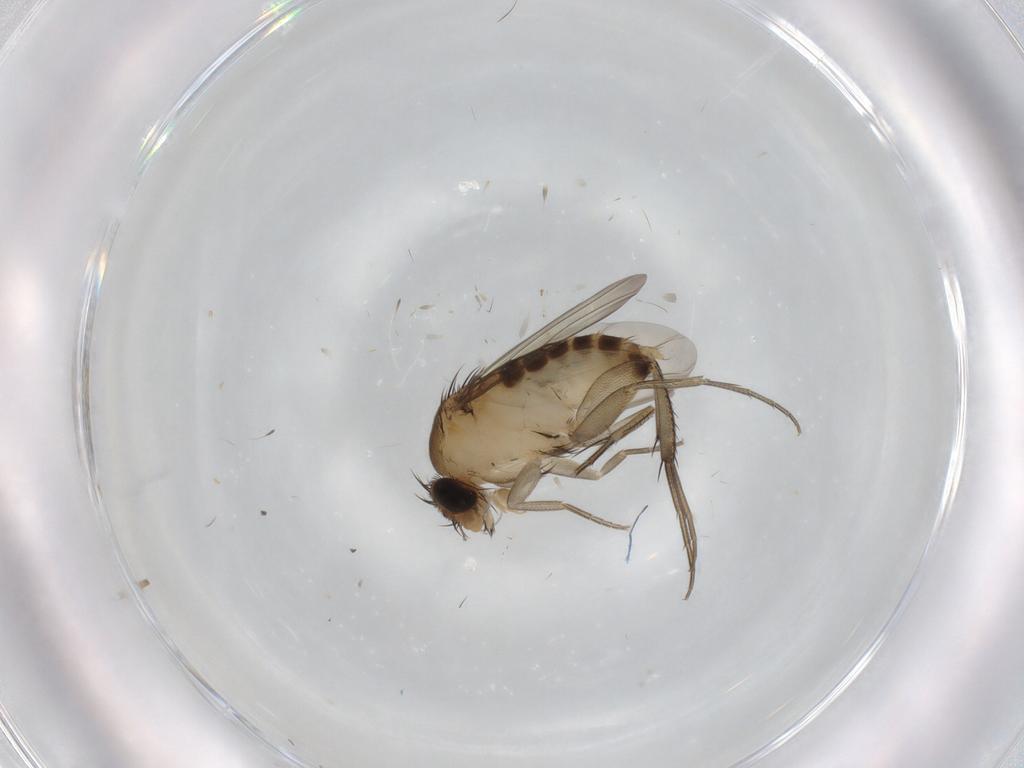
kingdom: Animalia
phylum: Arthropoda
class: Insecta
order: Diptera
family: Phoridae
